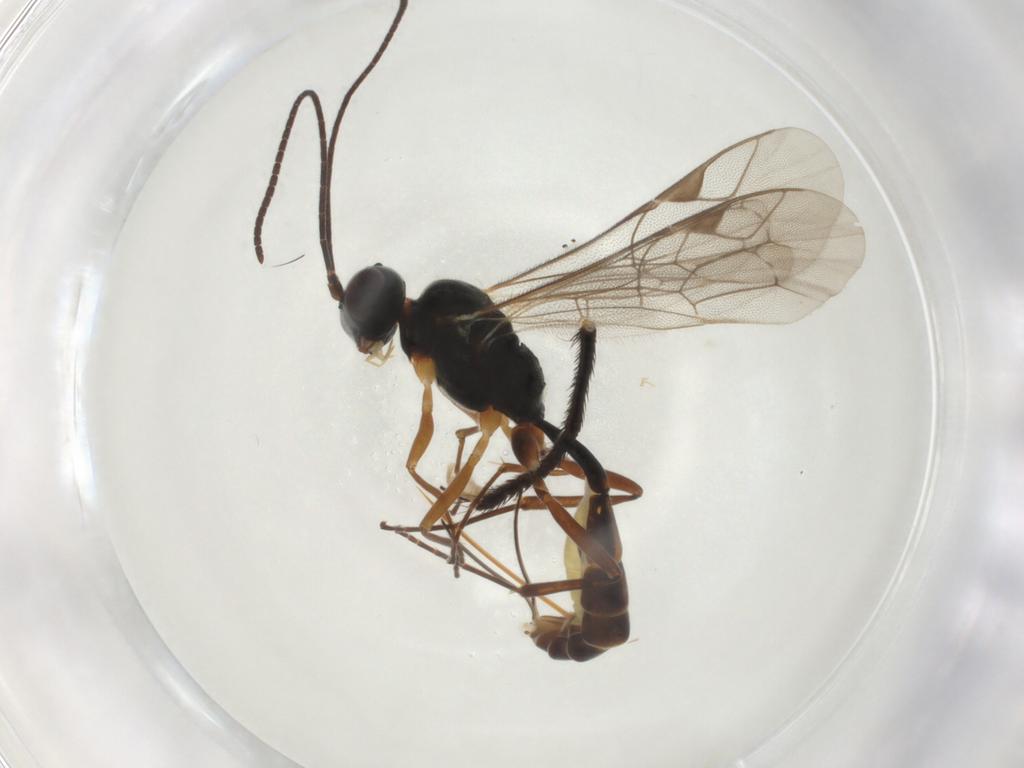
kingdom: Animalia
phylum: Arthropoda
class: Insecta
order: Hymenoptera
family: Ichneumonidae
